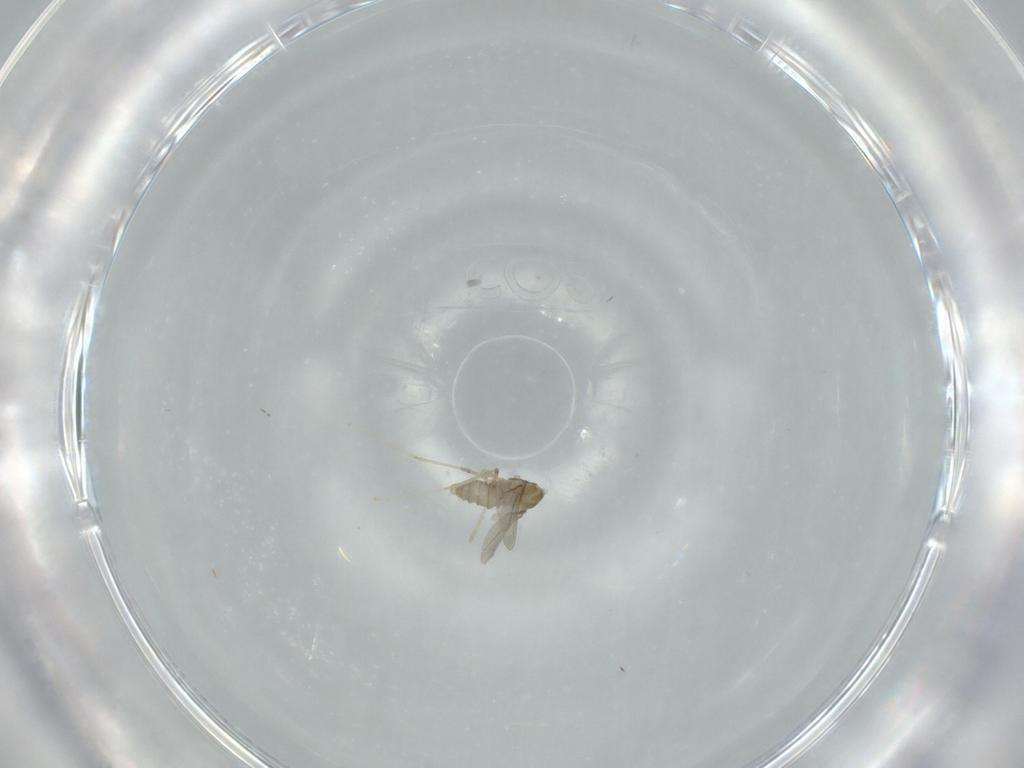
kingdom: Animalia
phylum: Arthropoda
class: Insecta
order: Diptera
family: Cecidomyiidae
